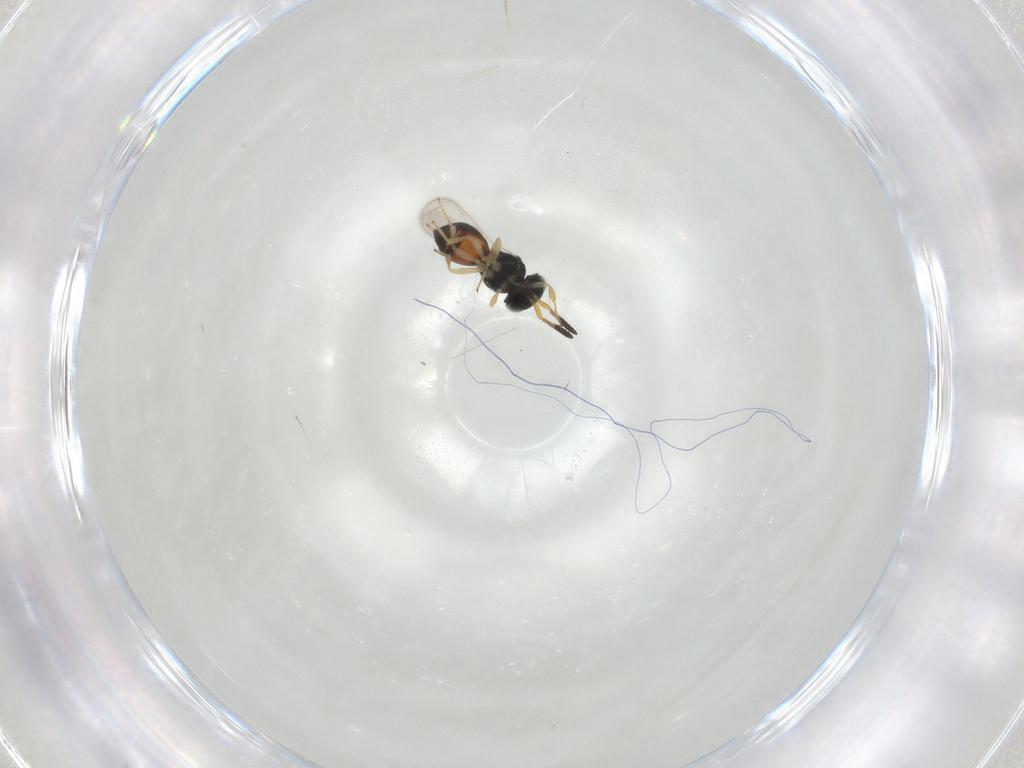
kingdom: Animalia
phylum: Arthropoda
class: Insecta
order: Hymenoptera
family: Scelionidae
